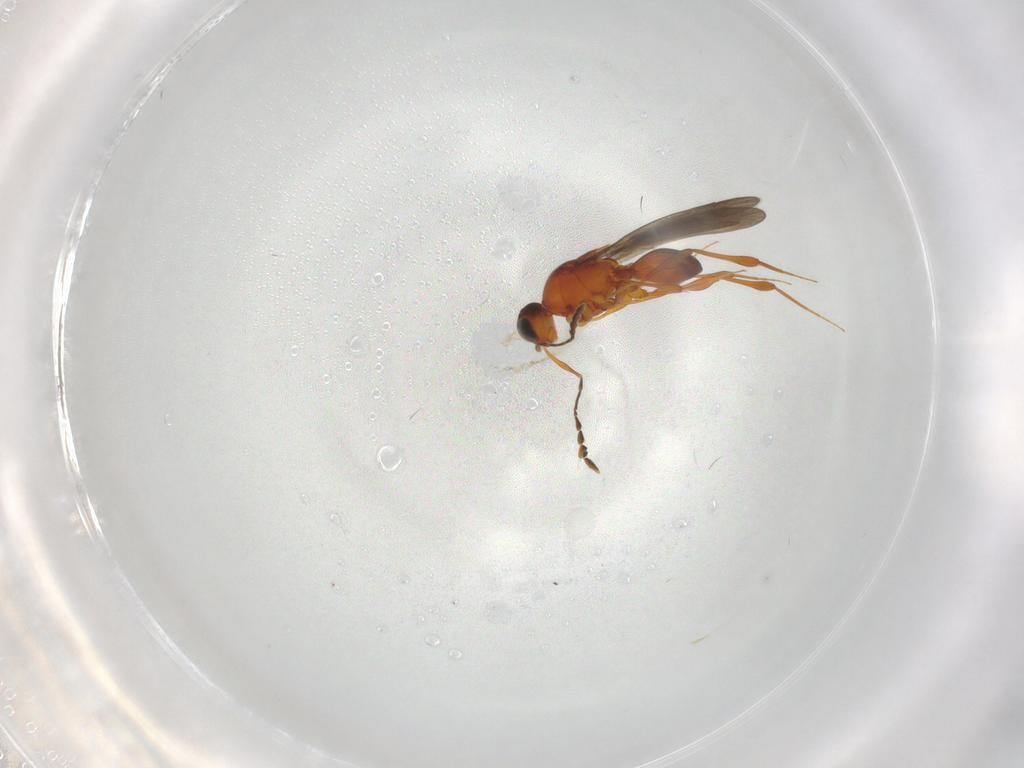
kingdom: Animalia
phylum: Arthropoda
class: Insecta
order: Hymenoptera
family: Platygastridae
